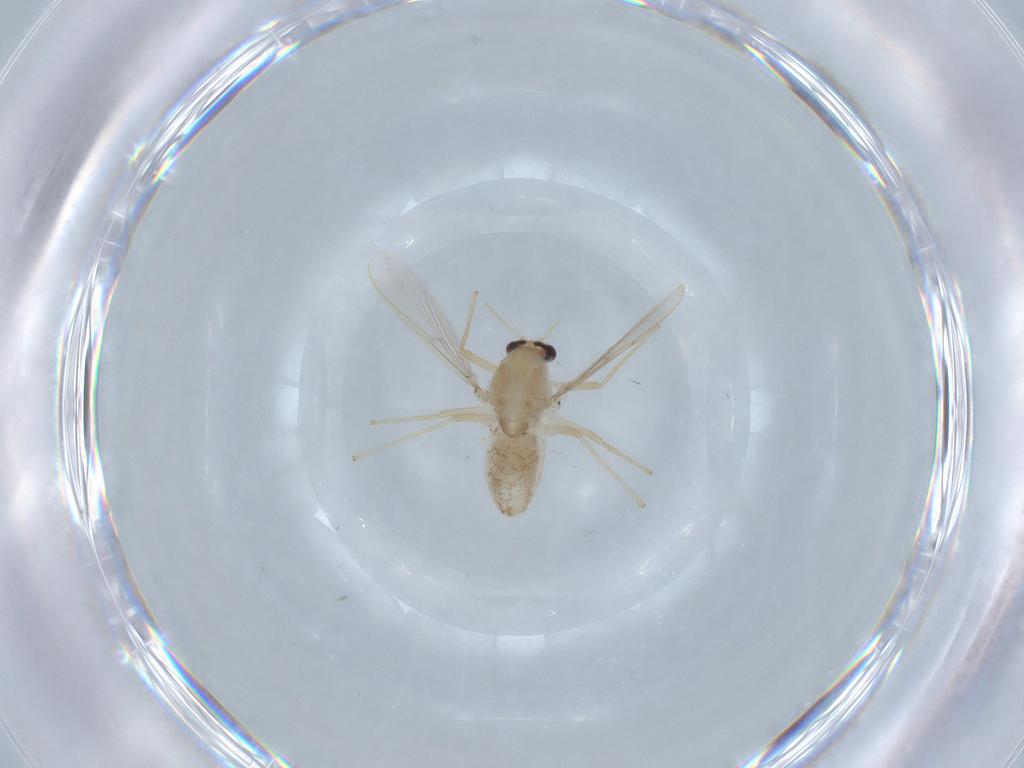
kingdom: Animalia
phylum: Arthropoda
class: Insecta
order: Diptera
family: Chironomidae
